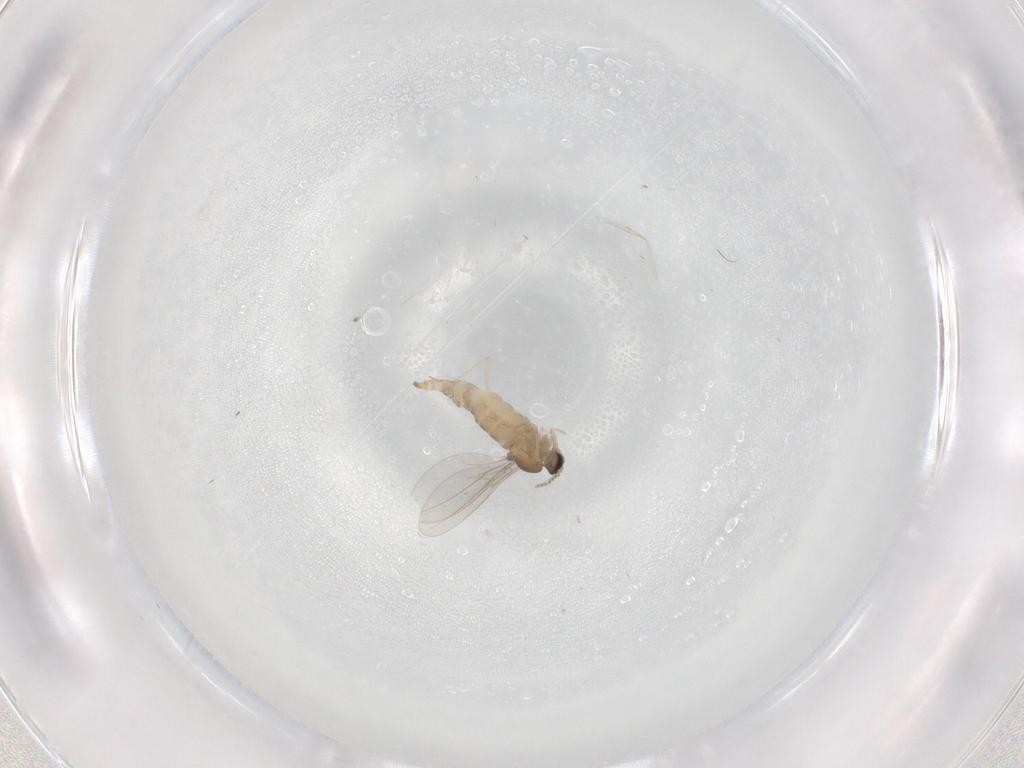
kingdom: Animalia
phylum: Arthropoda
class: Insecta
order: Diptera
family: Cecidomyiidae
